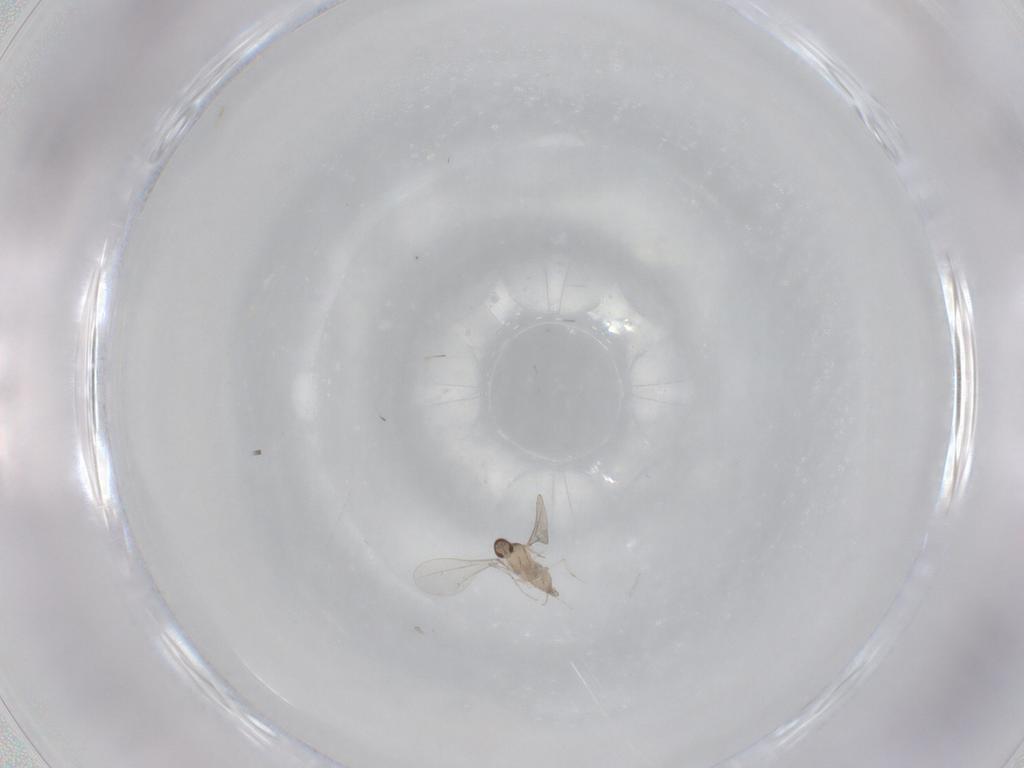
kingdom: Animalia
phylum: Arthropoda
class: Insecta
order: Diptera
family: Cecidomyiidae
